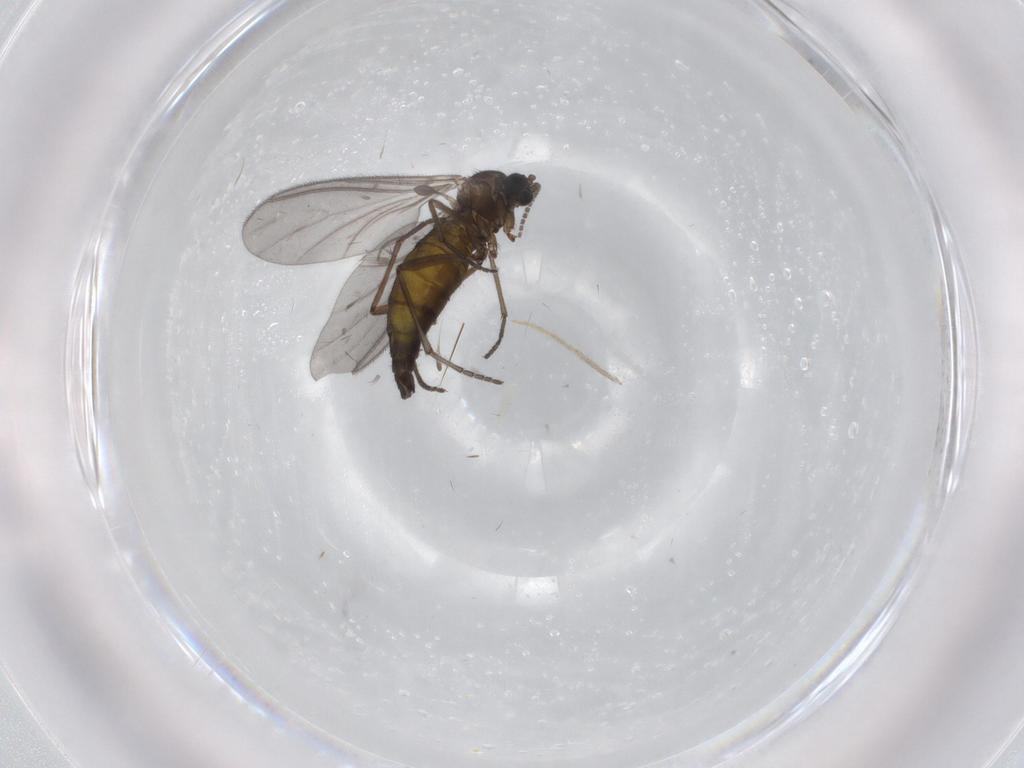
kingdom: Animalia
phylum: Arthropoda
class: Insecta
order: Diptera
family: Sciaridae
